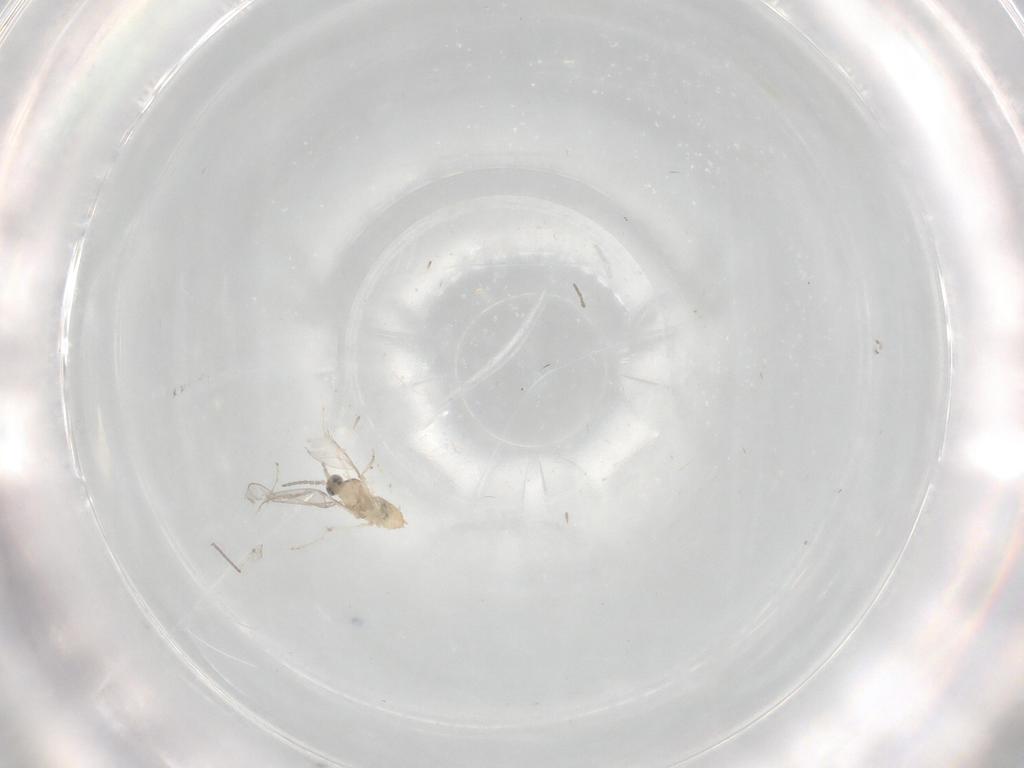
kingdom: Animalia
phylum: Arthropoda
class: Insecta
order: Diptera
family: Cecidomyiidae
